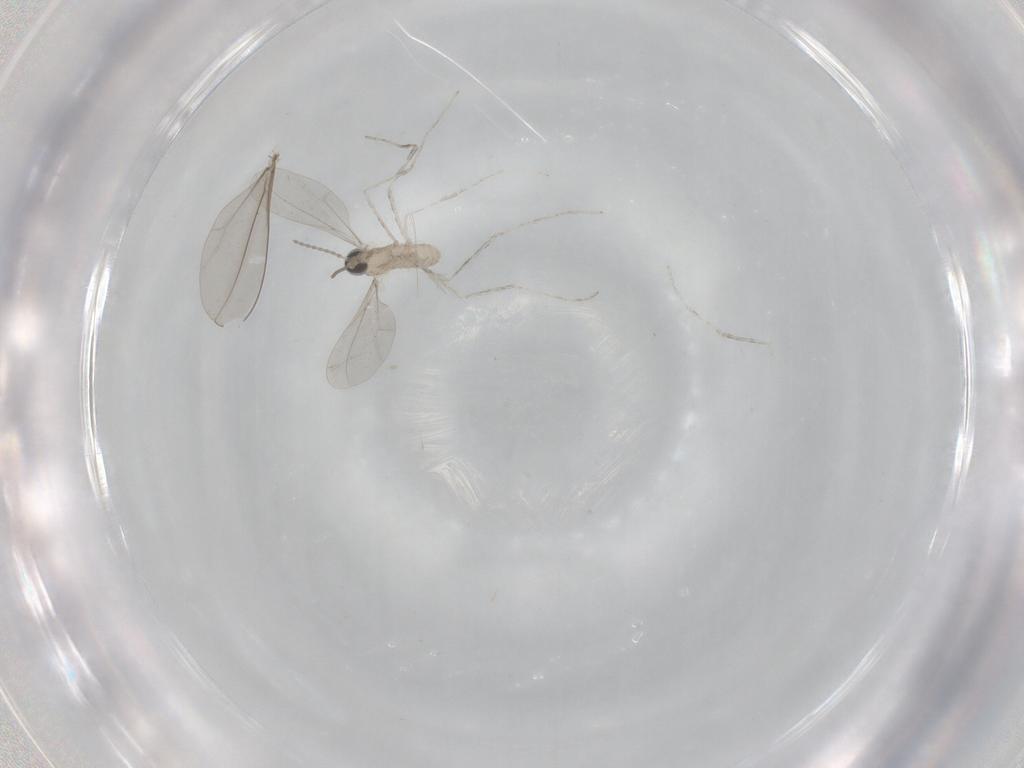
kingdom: Animalia
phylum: Arthropoda
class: Insecta
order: Diptera
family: Cecidomyiidae
